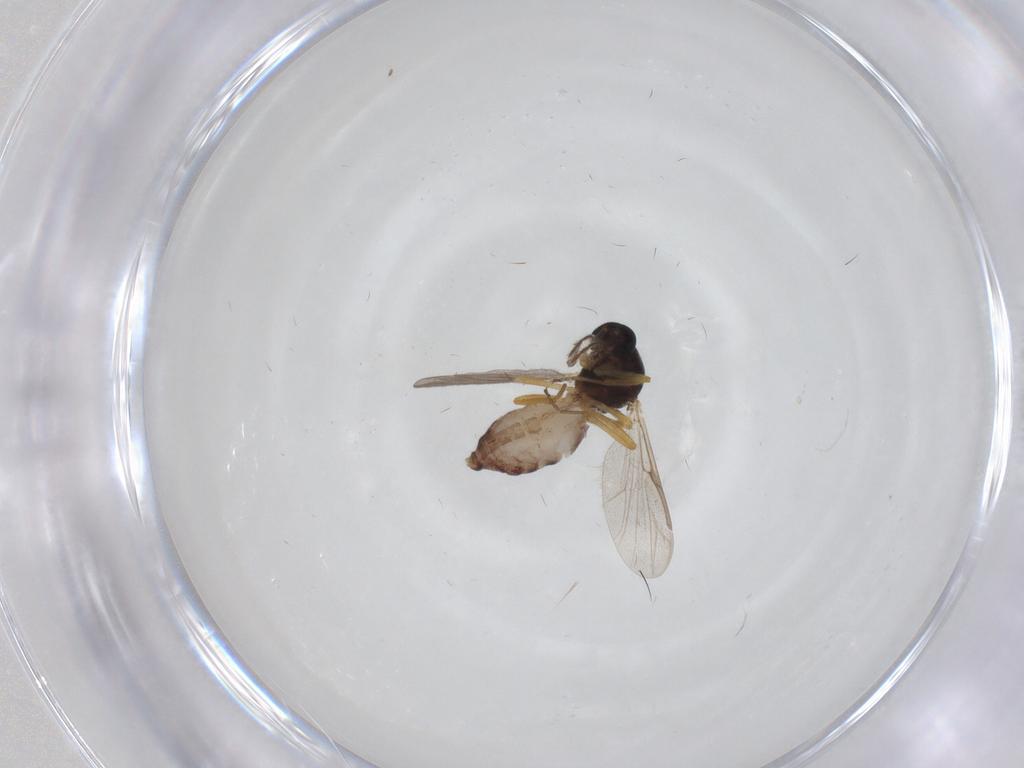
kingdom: Animalia
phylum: Arthropoda
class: Insecta
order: Diptera
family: Ceratopogonidae
